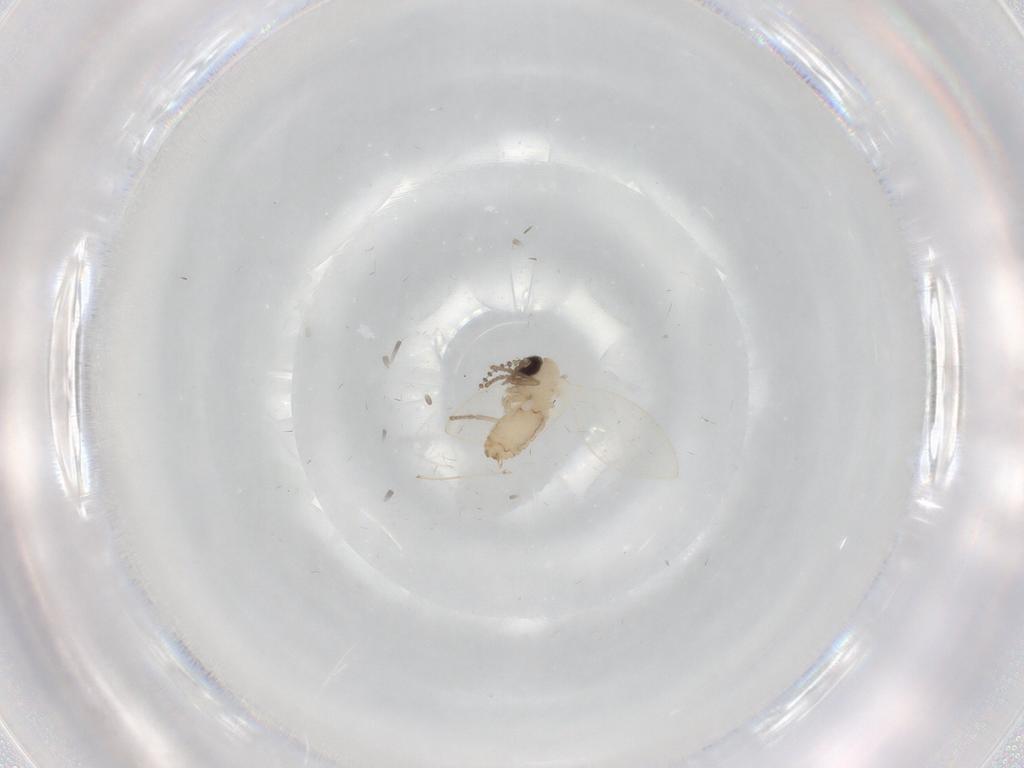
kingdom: Animalia
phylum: Arthropoda
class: Insecta
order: Diptera
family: Psychodidae
